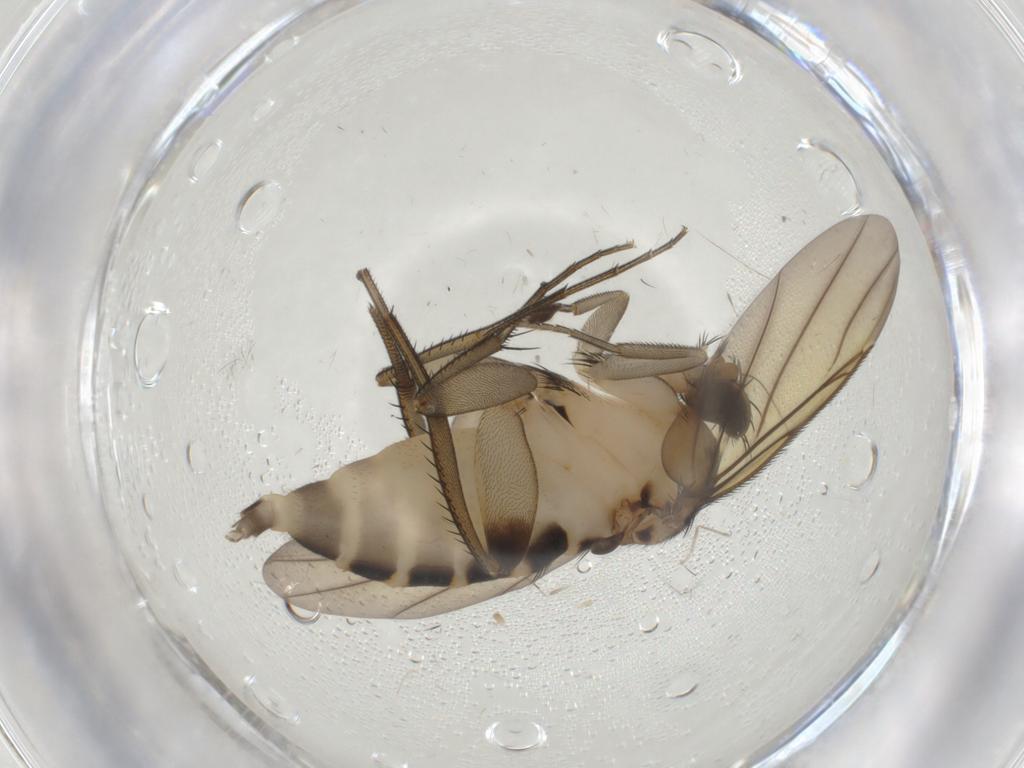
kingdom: Animalia
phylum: Arthropoda
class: Insecta
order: Diptera
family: Phoridae
